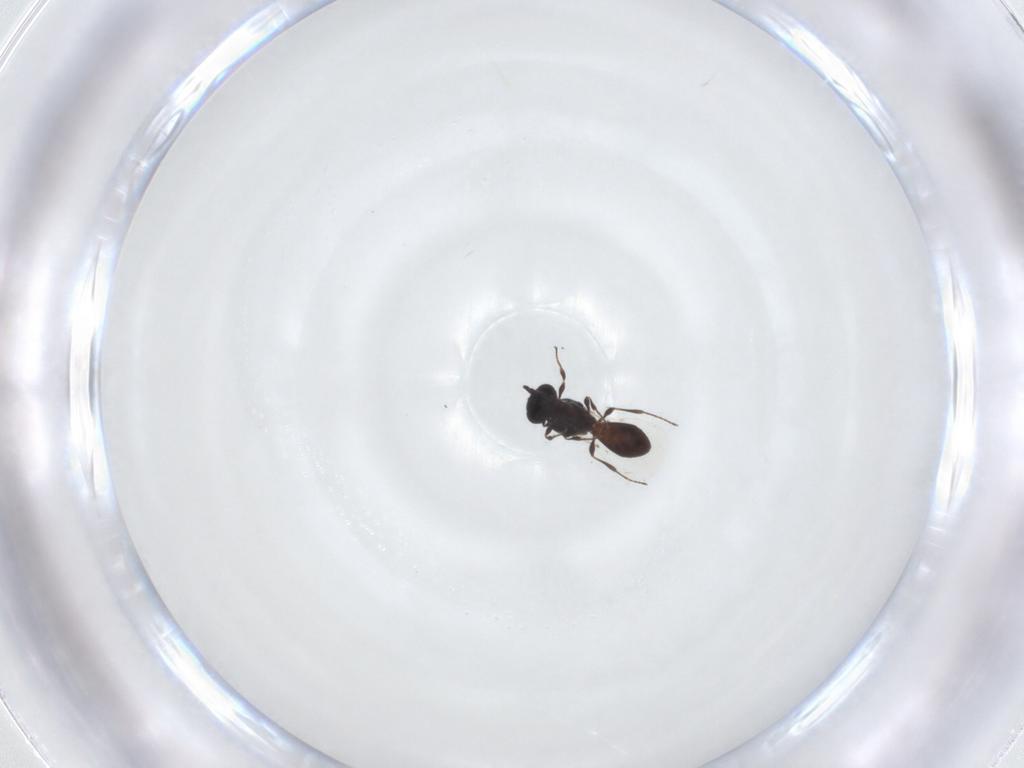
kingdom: Animalia
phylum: Arthropoda
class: Insecta
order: Hymenoptera
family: Platygastridae
